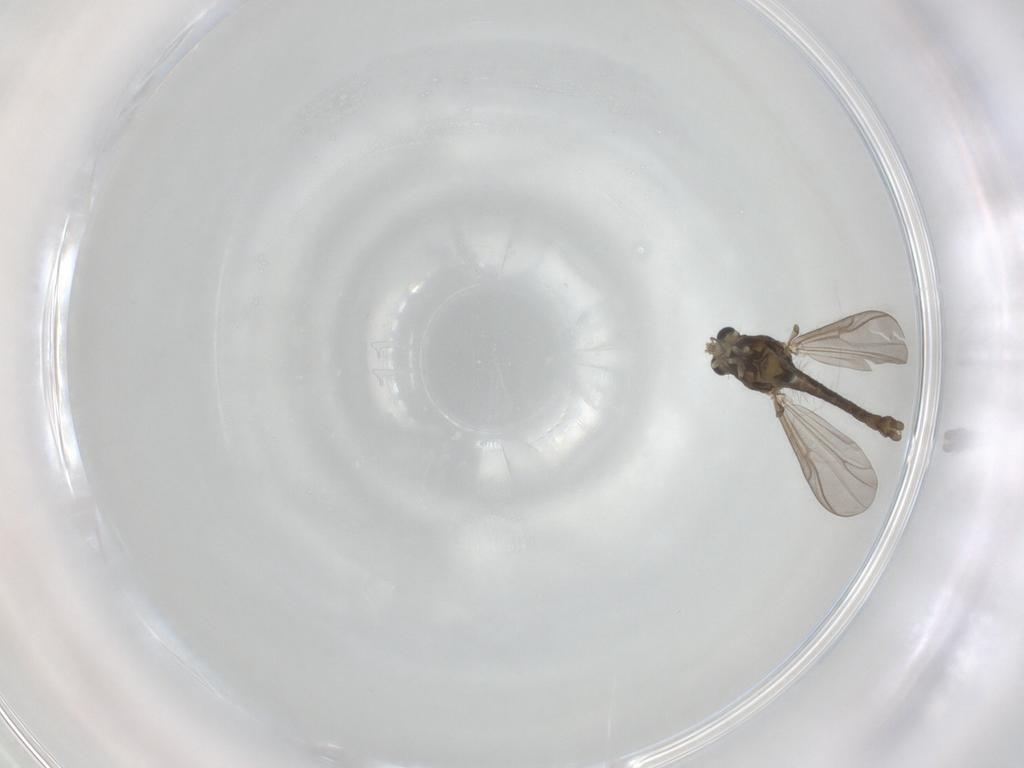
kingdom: Animalia
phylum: Arthropoda
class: Insecta
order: Diptera
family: Chironomidae
